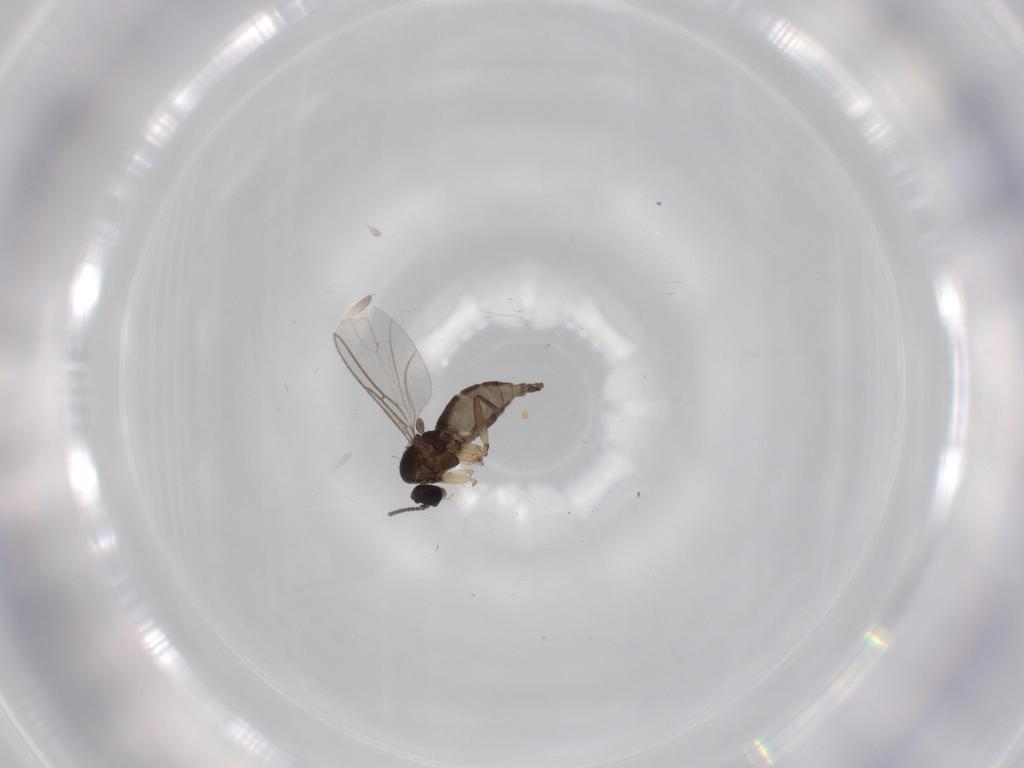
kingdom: Animalia
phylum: Arthropoda
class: Insecta
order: Diptera
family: Sciaridae
